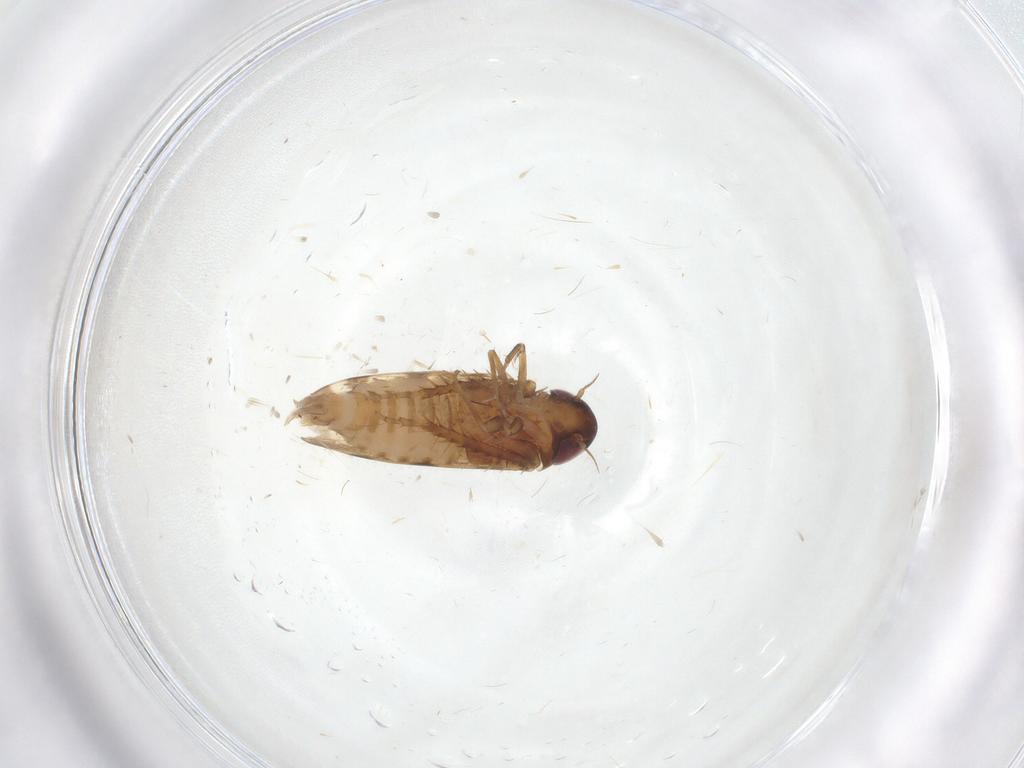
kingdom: Animalia
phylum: Arthropoda
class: Insecta
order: Hemiptera
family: Cicadellidae
